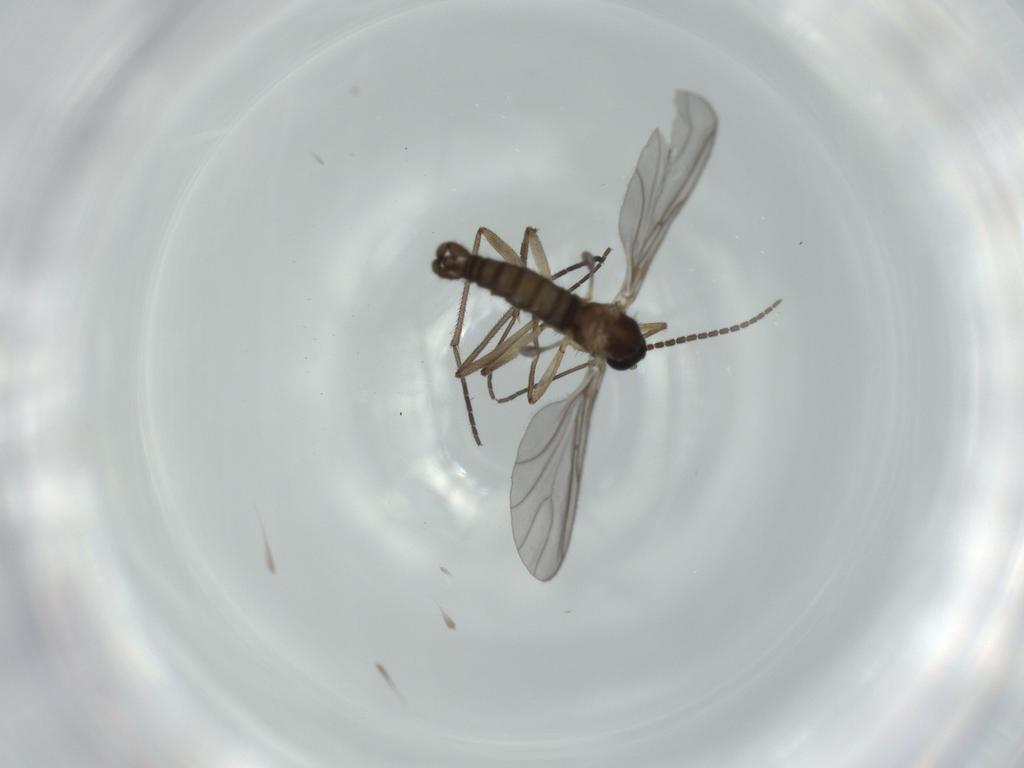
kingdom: Animalia
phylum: Arthropoda
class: Insecta
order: Diptera
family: Sciaridae
